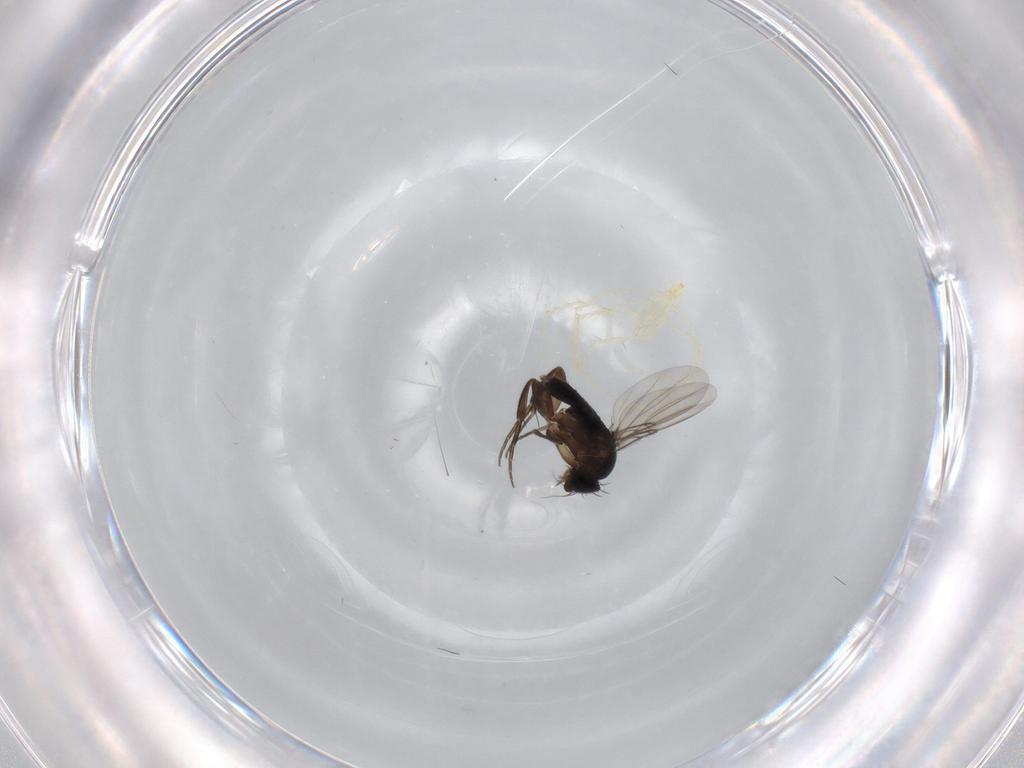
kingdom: Animalia
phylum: Arthropoda
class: Insecta
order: Diptera
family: Phoridae
